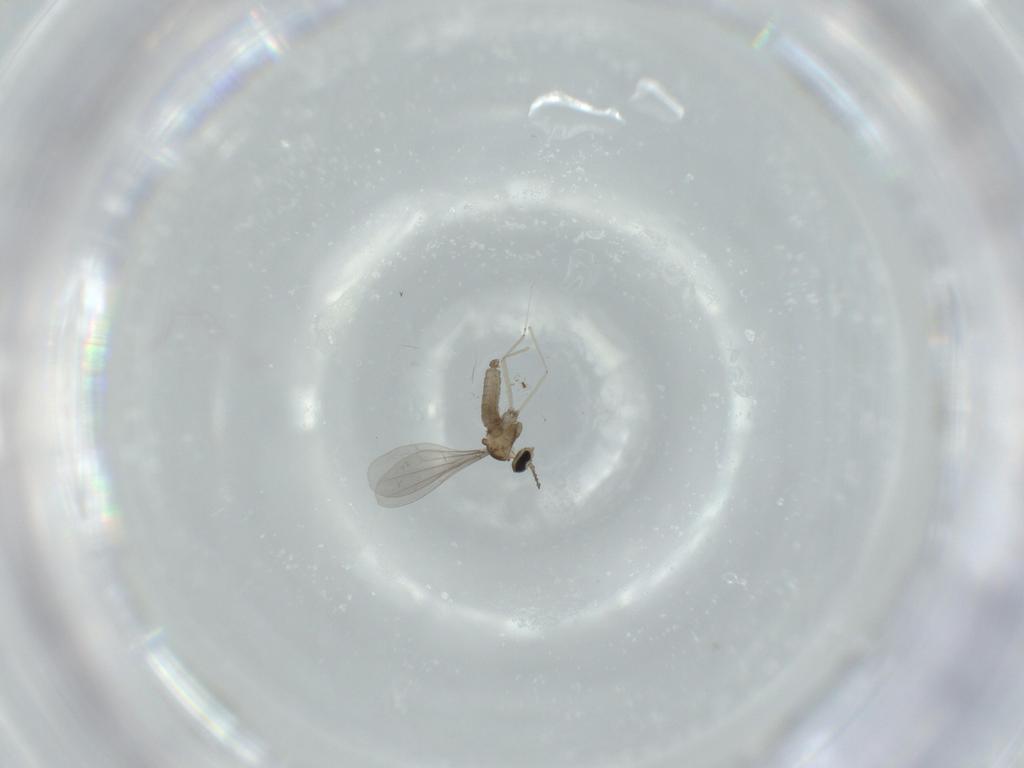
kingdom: Animalia
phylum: Arthropoda
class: Insecta
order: Diptera
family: Cecidomyiidae
